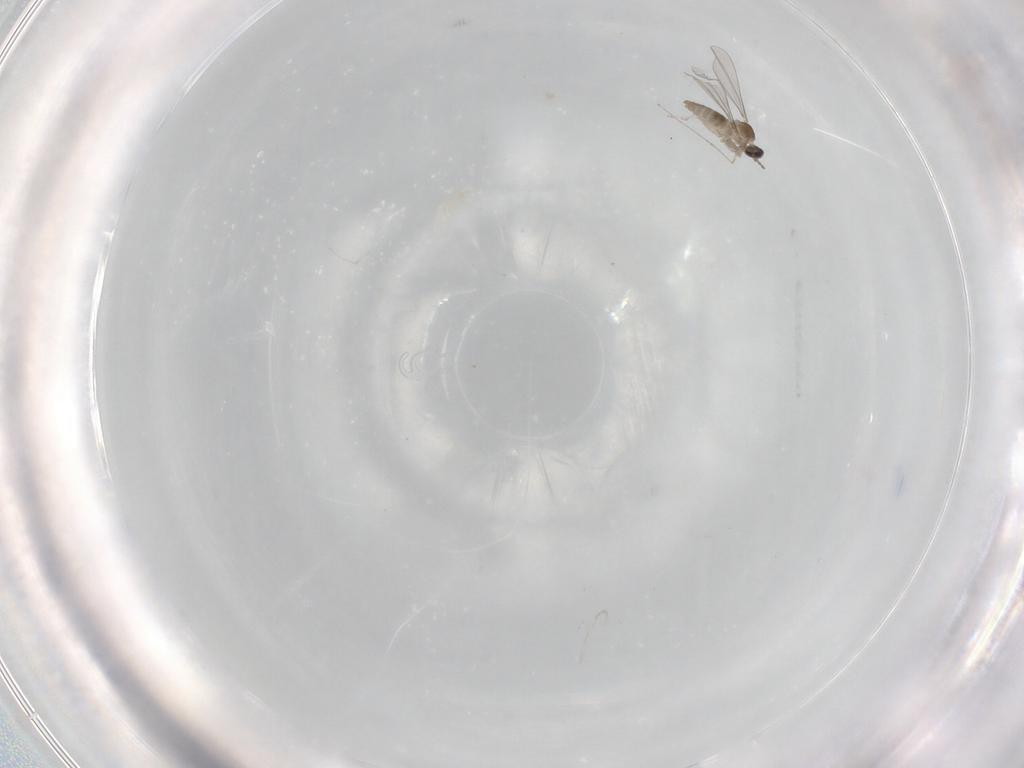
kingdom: Animalia
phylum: Arthropoda
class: Insecta
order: Diptera
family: Cecidomyiidae
